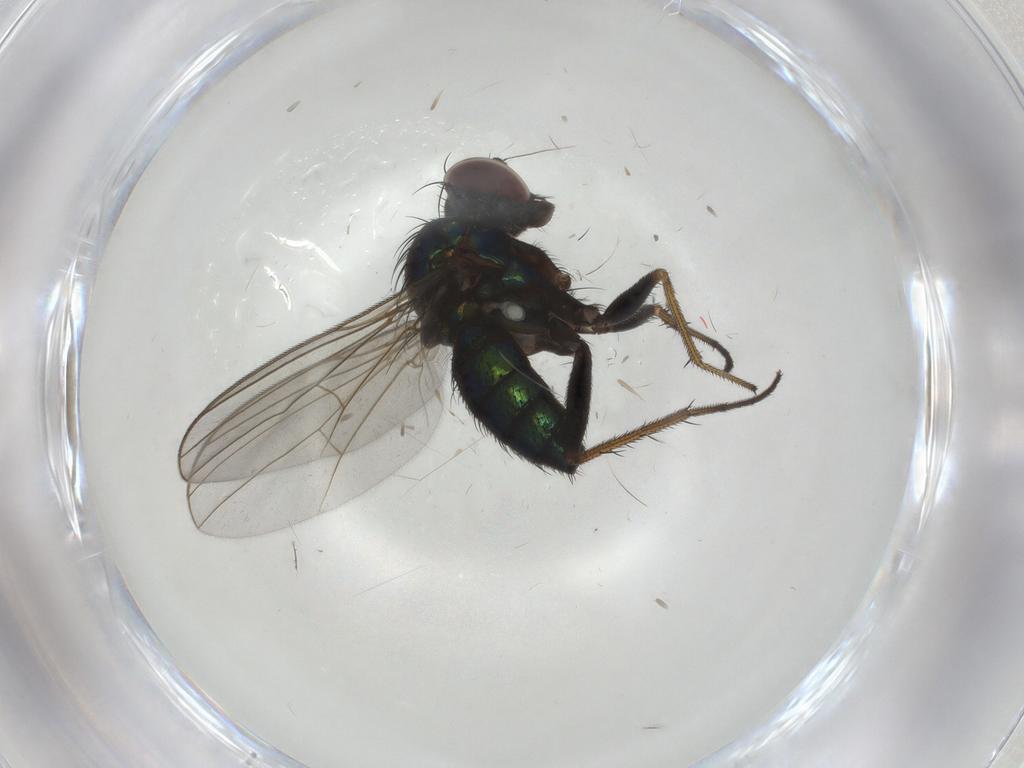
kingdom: Animalia
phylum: Arthropoda
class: Insecta
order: Diptera
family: Dolichopodidae
